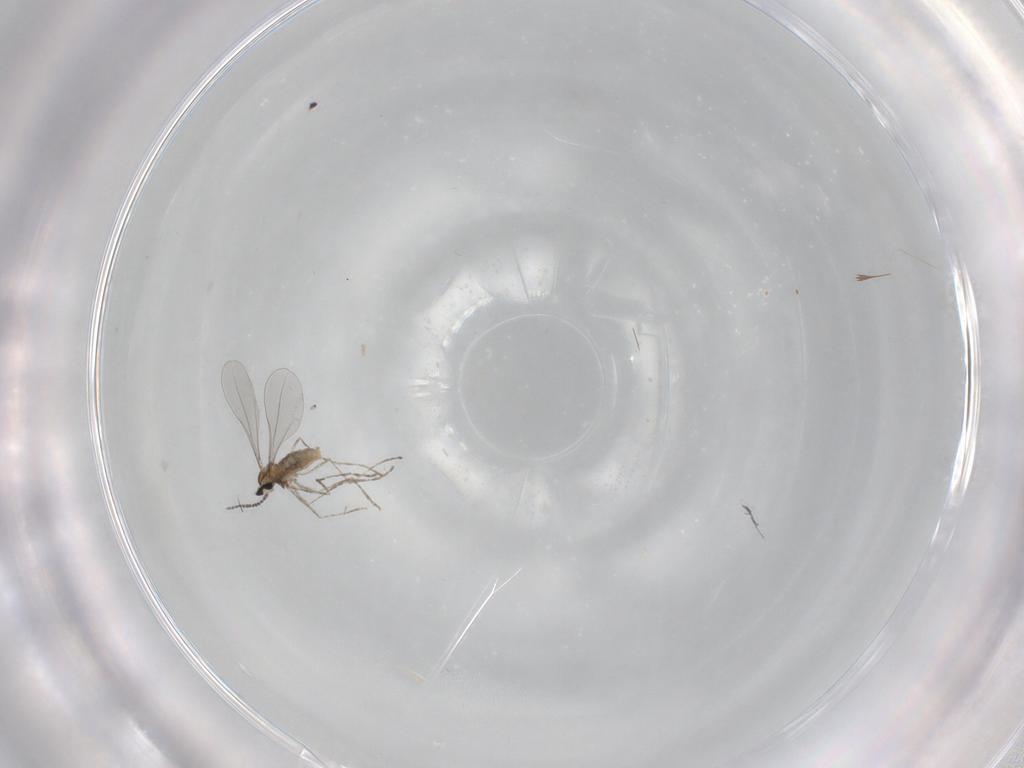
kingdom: Animalia
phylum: Arthropoda
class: Insecta
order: Diptera
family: Cecidomyiidae
